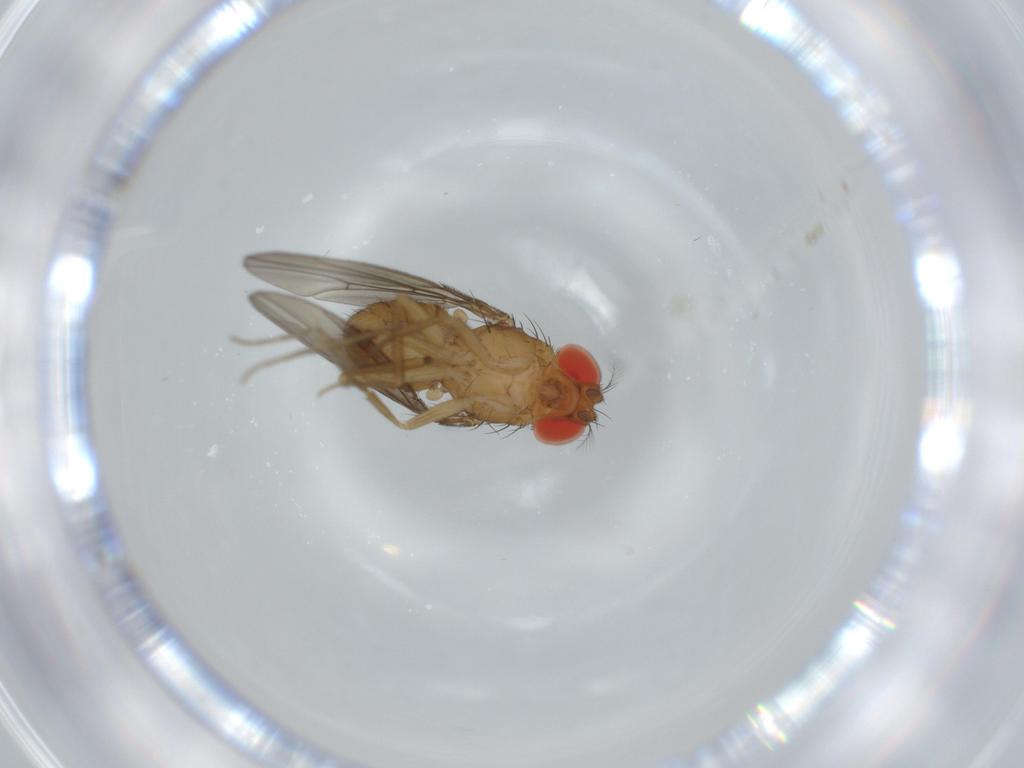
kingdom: Animalia
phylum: Arthropoda
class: Insecta
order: Diptera
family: Drosophilidae
